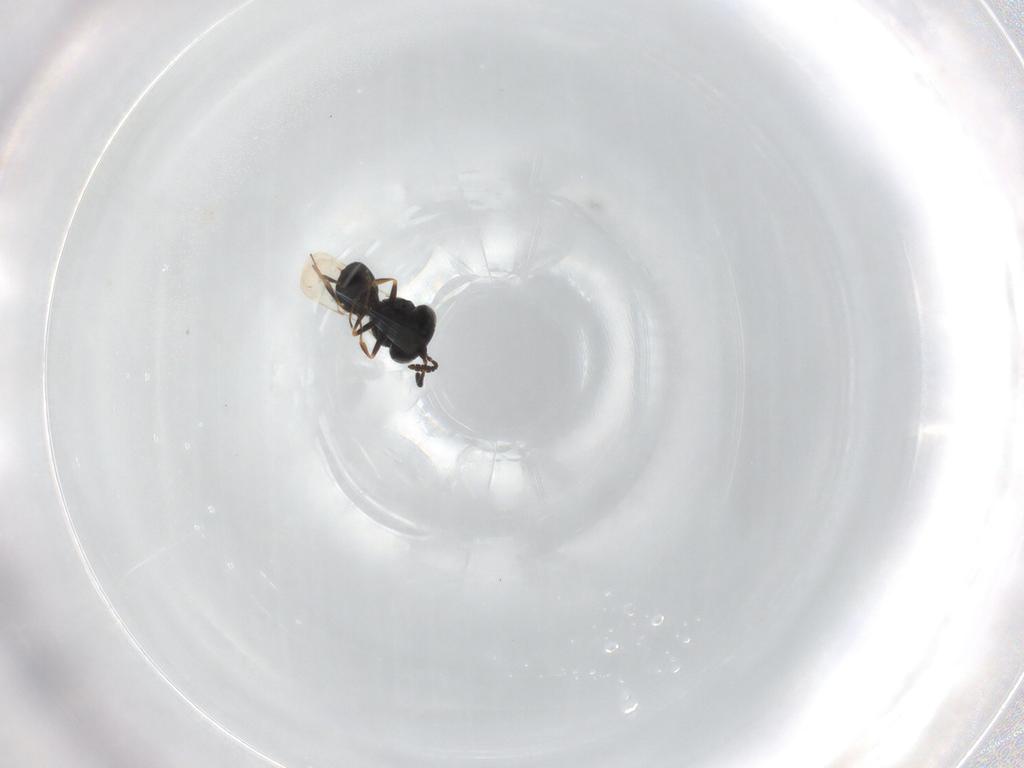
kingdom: Animalia
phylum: Arthropoda
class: Insecta
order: Hymenoptera
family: Scelionidae
